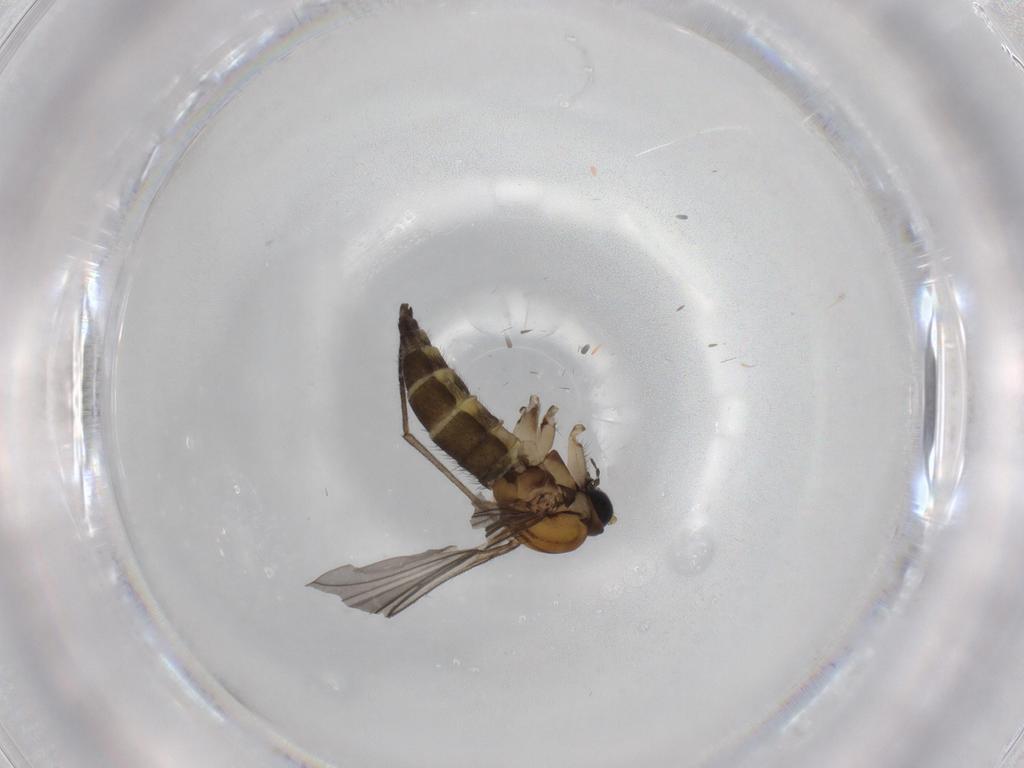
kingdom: Animalia
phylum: Arthropoda
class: Insecta
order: Diptera
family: Sciaridae
